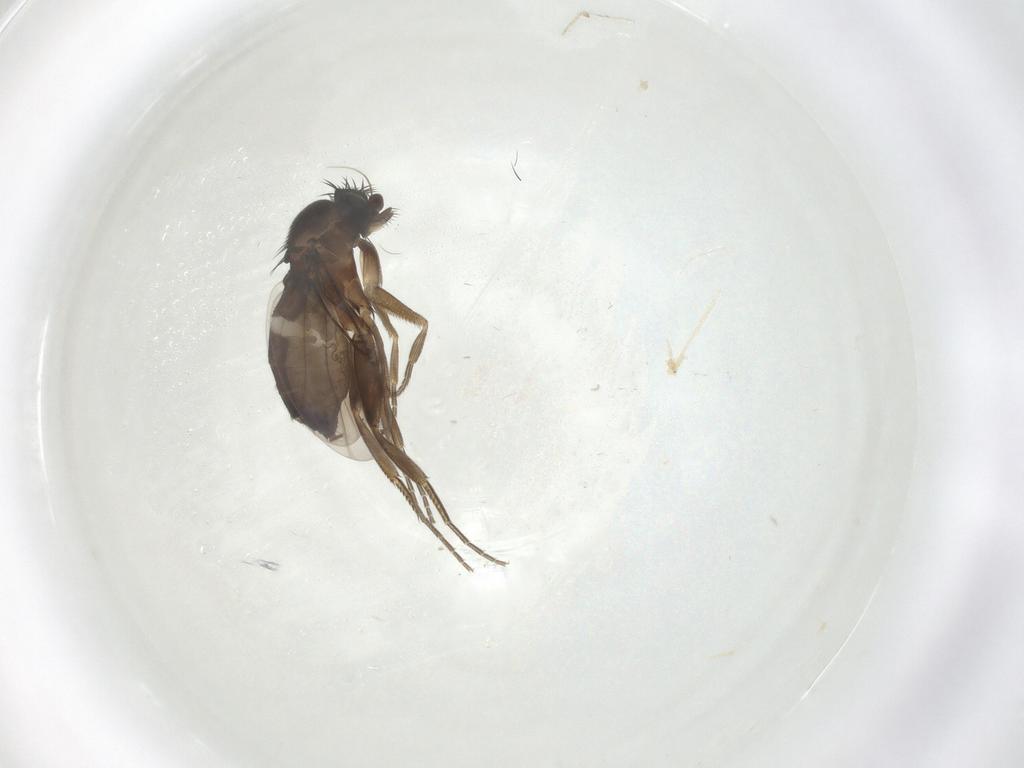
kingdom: Animalia
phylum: Arthropoda
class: Insecta
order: Diptera
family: Phoridae
